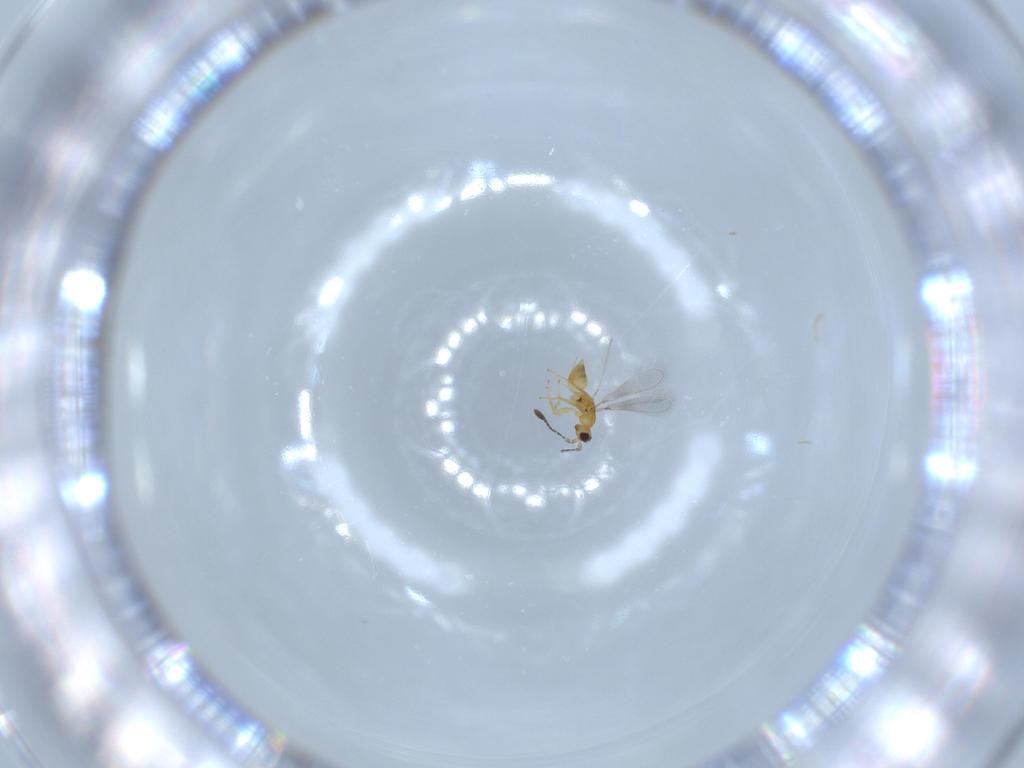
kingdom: Animalia
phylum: Arthropoda
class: Insecta
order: Hymenoptera
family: Mymaridae
